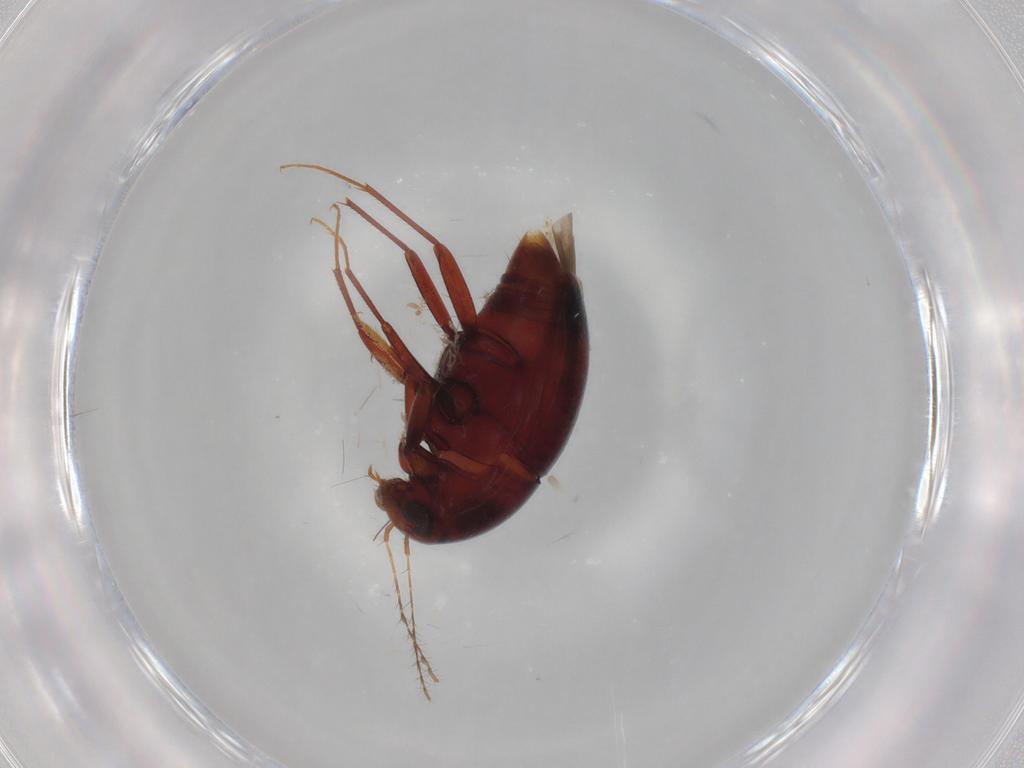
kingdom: Animalia
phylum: Arthropoda
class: Insecta
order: Coleoptera
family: Staphylinidae
